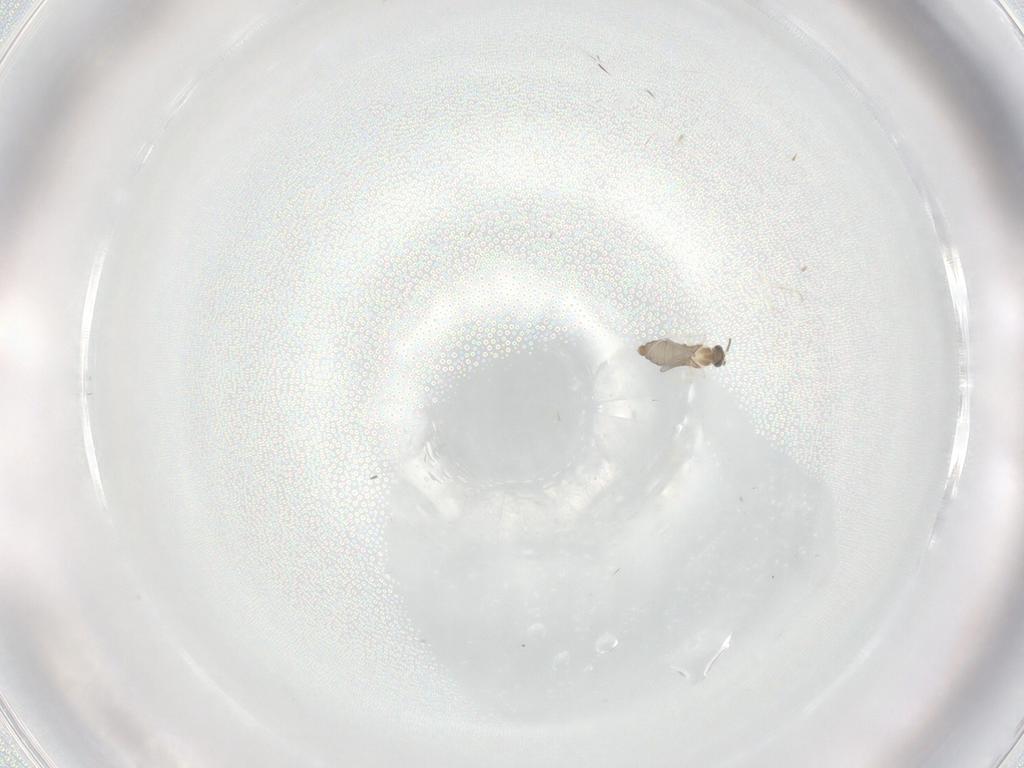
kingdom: Animalia
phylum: Arthropoda
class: Insecta
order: Diptera
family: Cecidomyiidae
